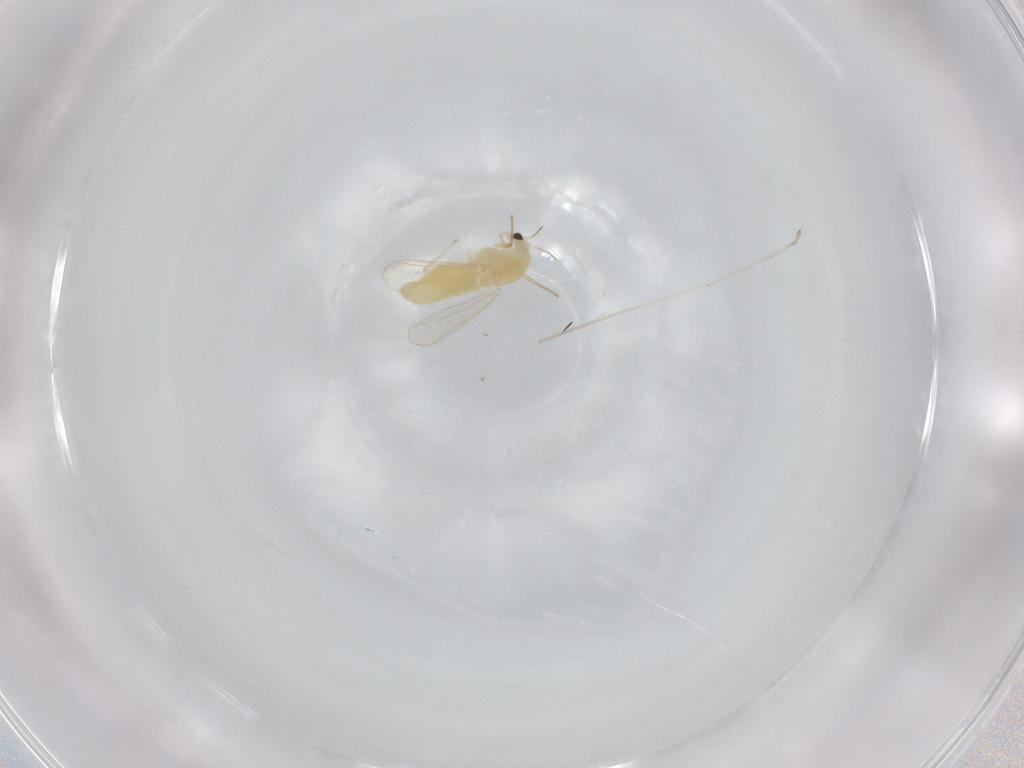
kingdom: Animalia
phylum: Arthropoda
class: Insecta
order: Diptera
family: Chironomidae
